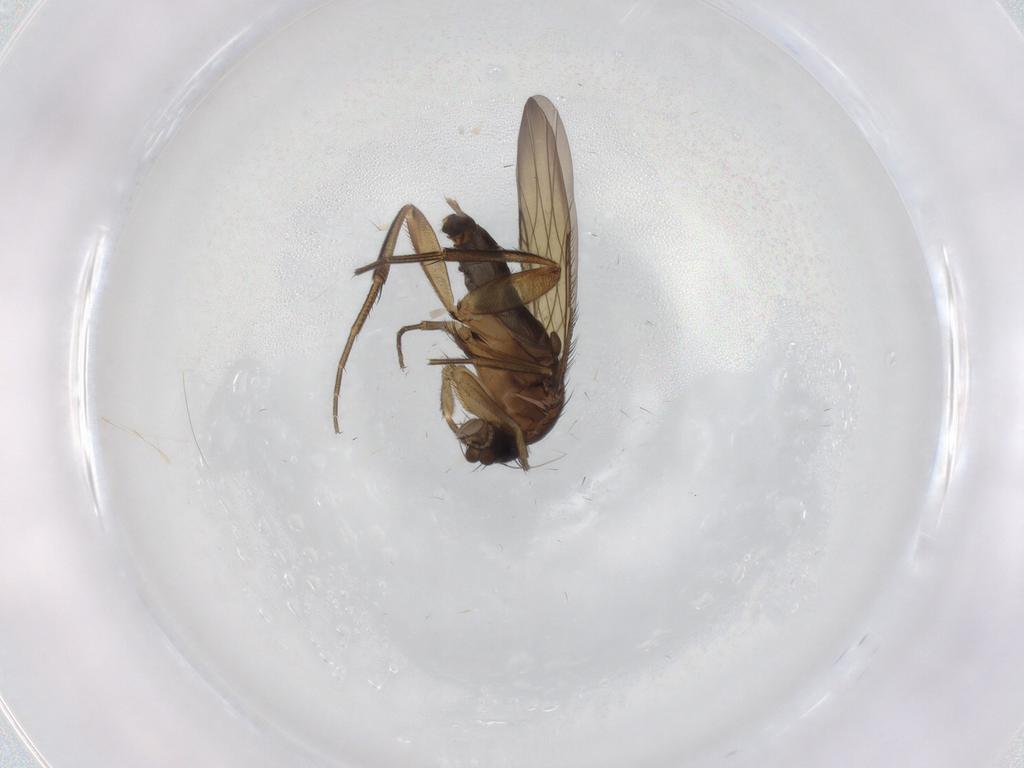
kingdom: Animalia
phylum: Arthropoda
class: Insecta
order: Diptera
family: Phoridae
